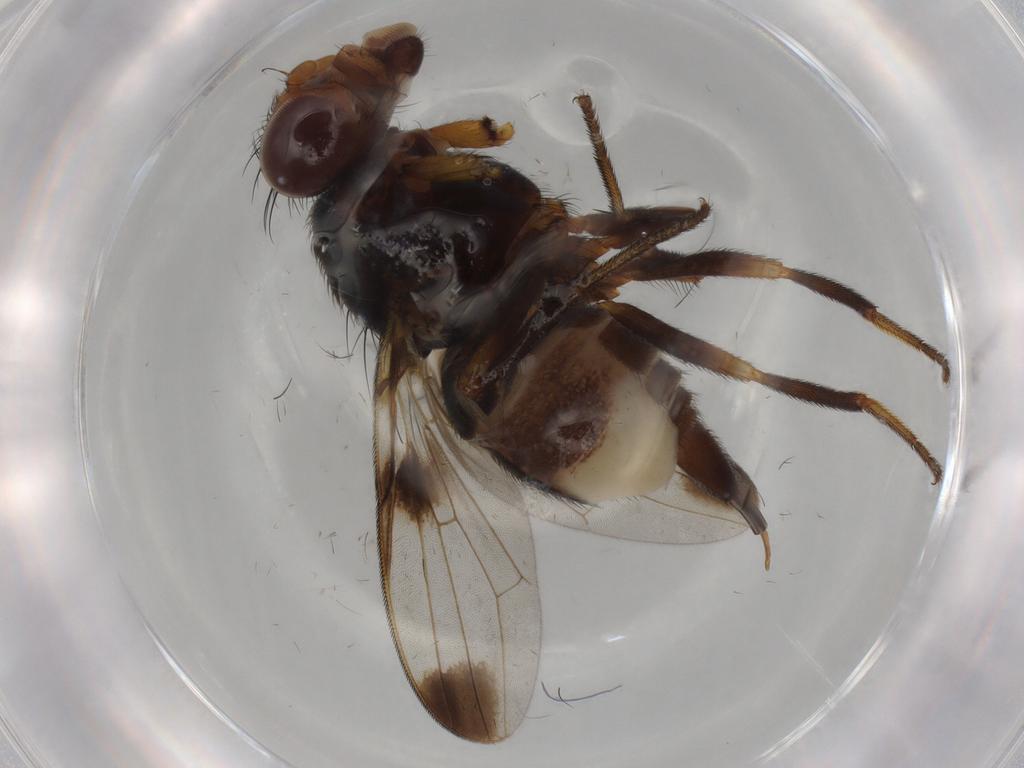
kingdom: Animalia
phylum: Arthropoda
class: Insecta
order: Diptera
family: Ulidiidae
